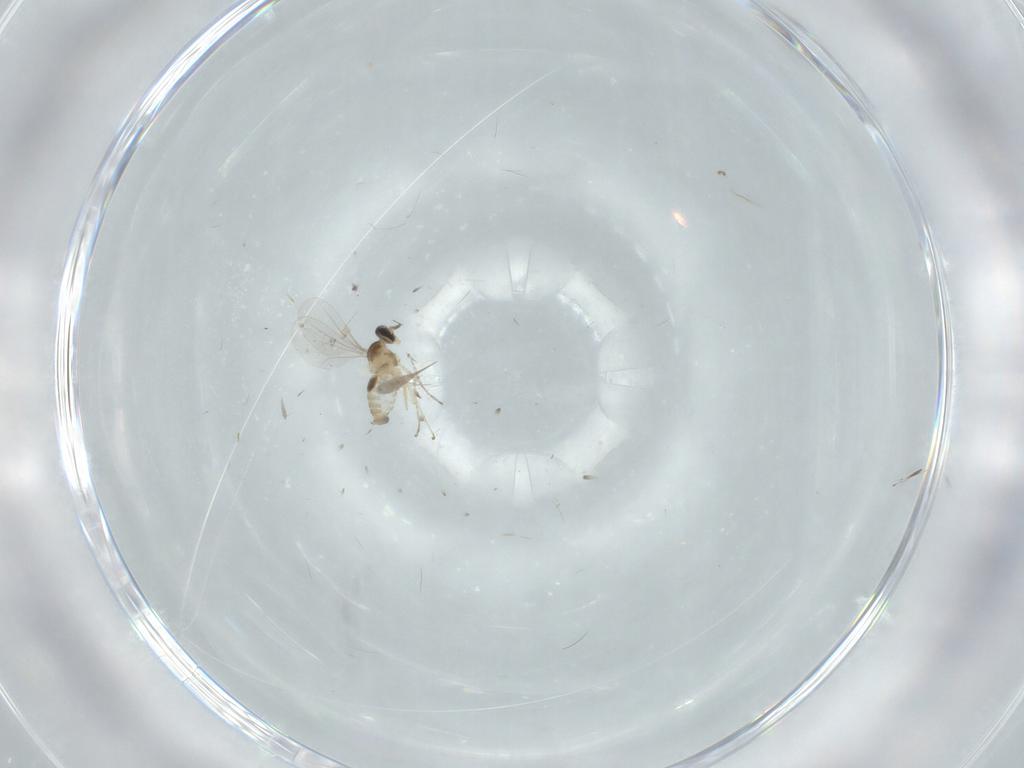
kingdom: Animalia
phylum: Arthropoda
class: Insecta
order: Diptera
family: Cecidomyiidae
